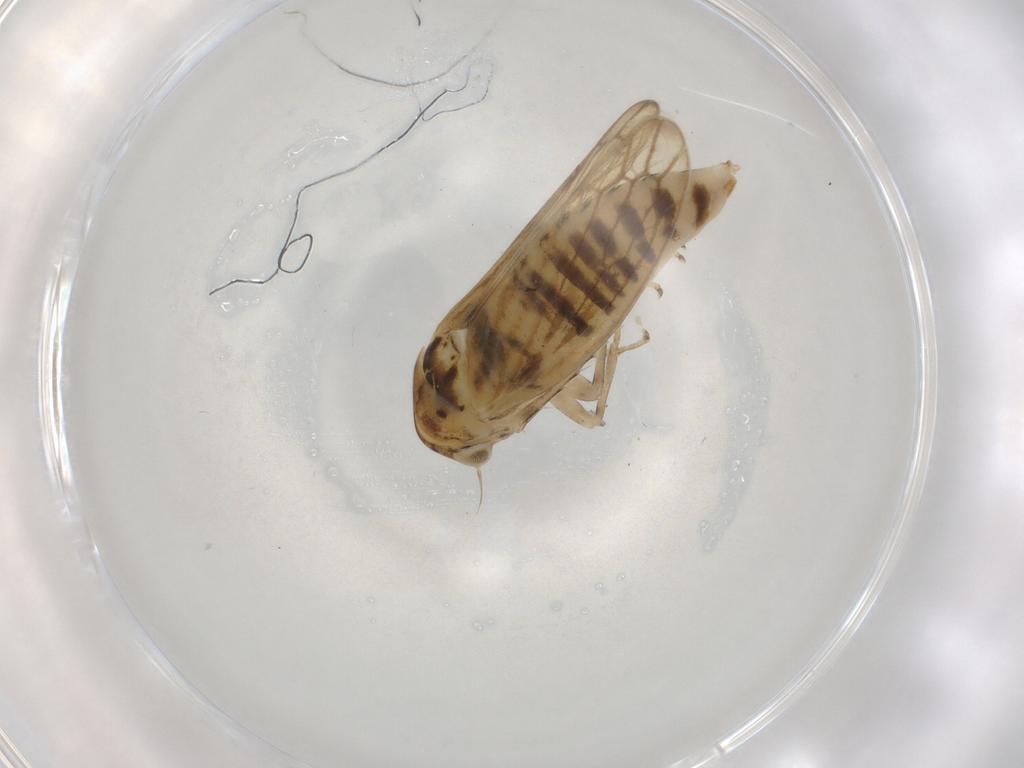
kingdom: Animalia
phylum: Arthropoda
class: Insecta
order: Hemiptera
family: Cicadellidae
